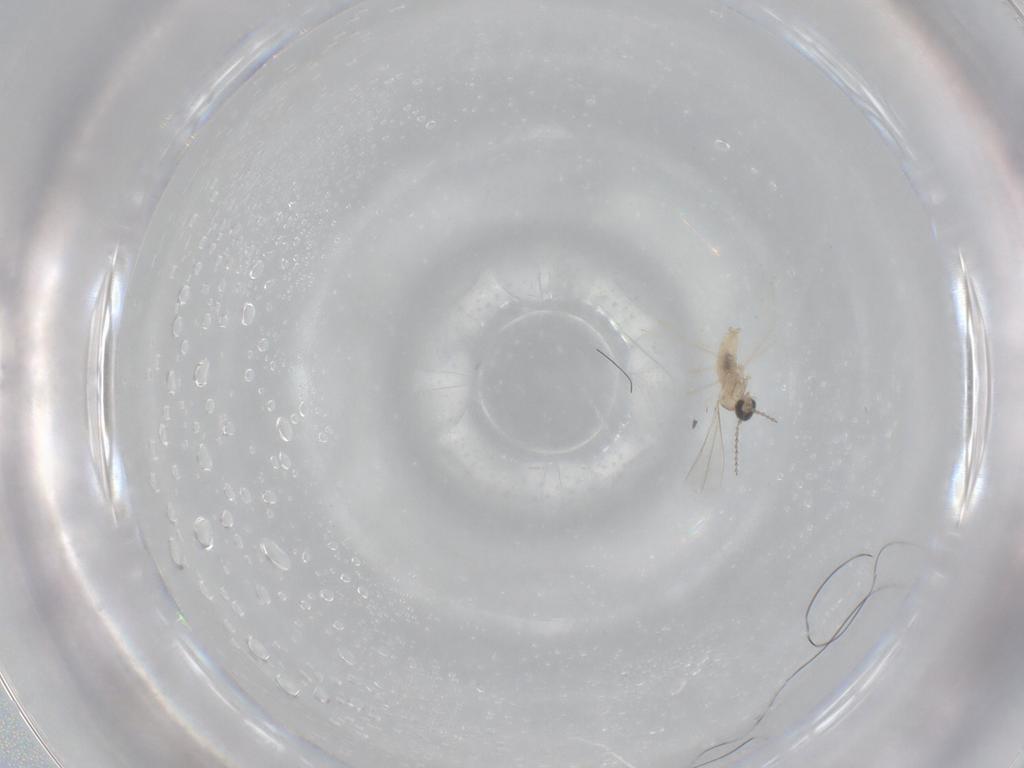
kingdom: Animalia
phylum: Arthropoda
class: Insecta
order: Diptera
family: Cecidomyiidae
